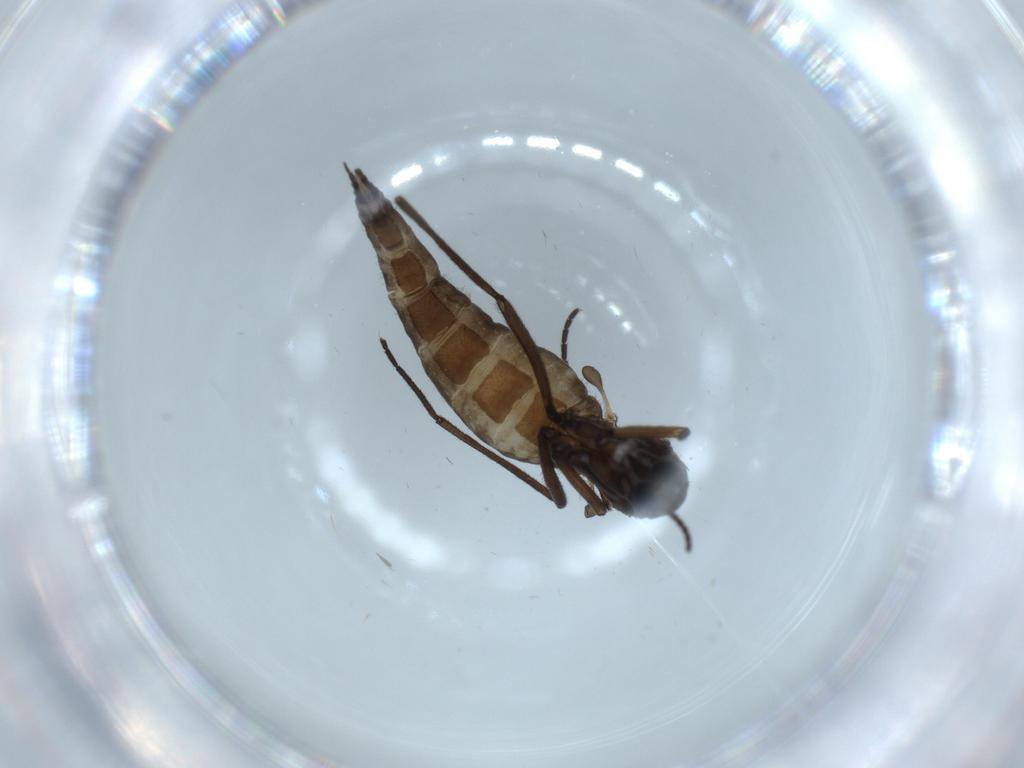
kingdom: Animalia
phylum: Arthropoda
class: Insecta
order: Diptera
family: Sciaridae
